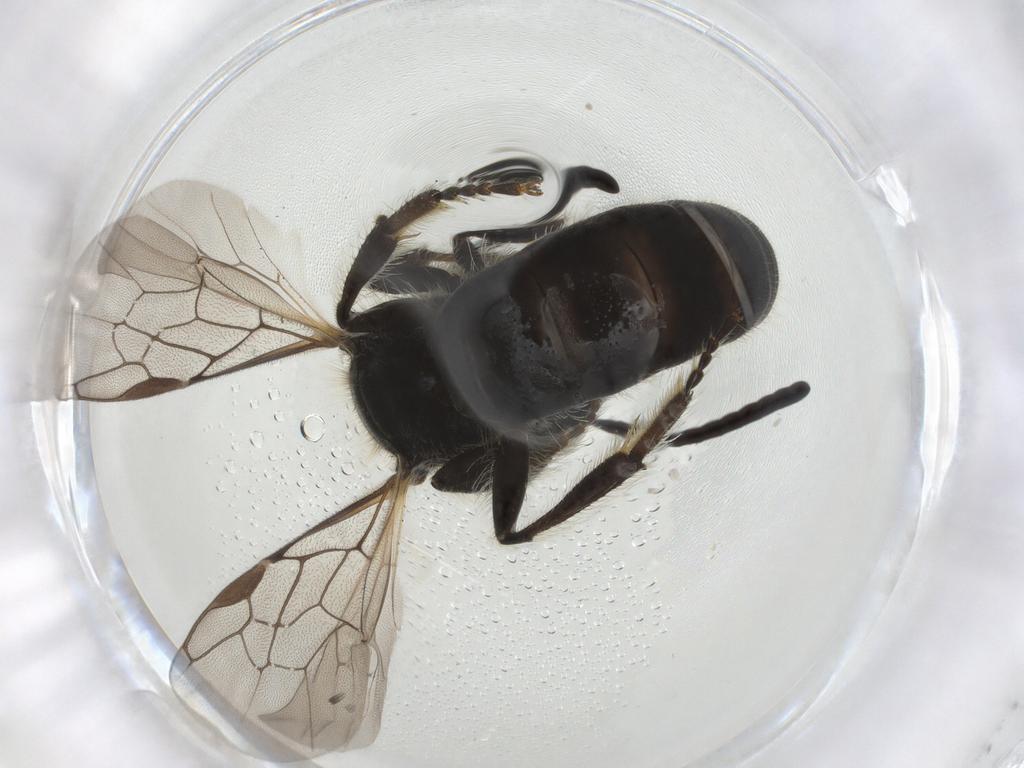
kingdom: Animalia
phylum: Arthropoda
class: Insecta
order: Hymenoptera
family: Andrenidae
